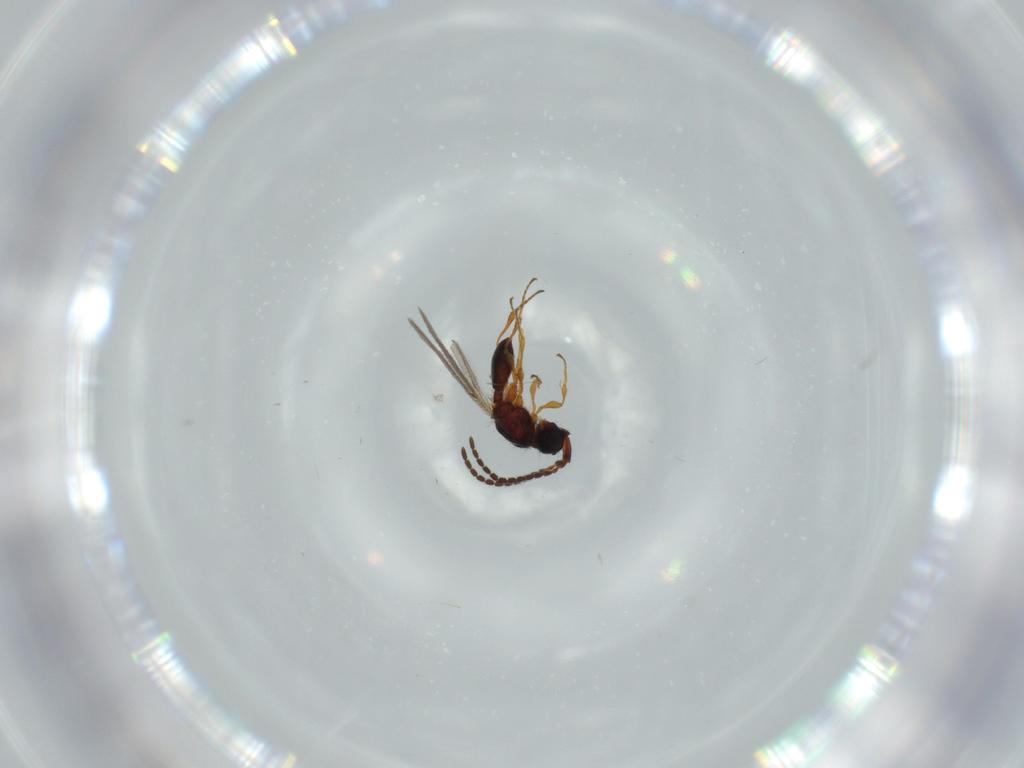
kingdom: Animalia
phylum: Arthropoda
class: Insecta
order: Hymenoptera
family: Diapriidae
